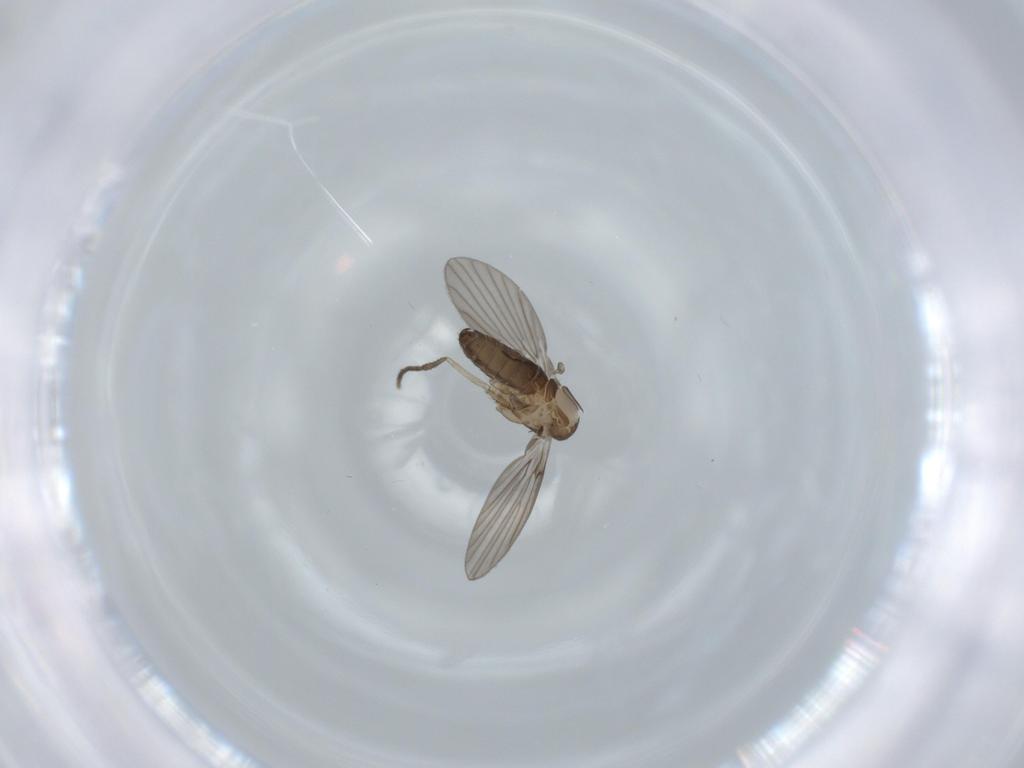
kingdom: Animalia
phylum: Arthropoda
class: Insecta
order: Diptera
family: Psychodidae
